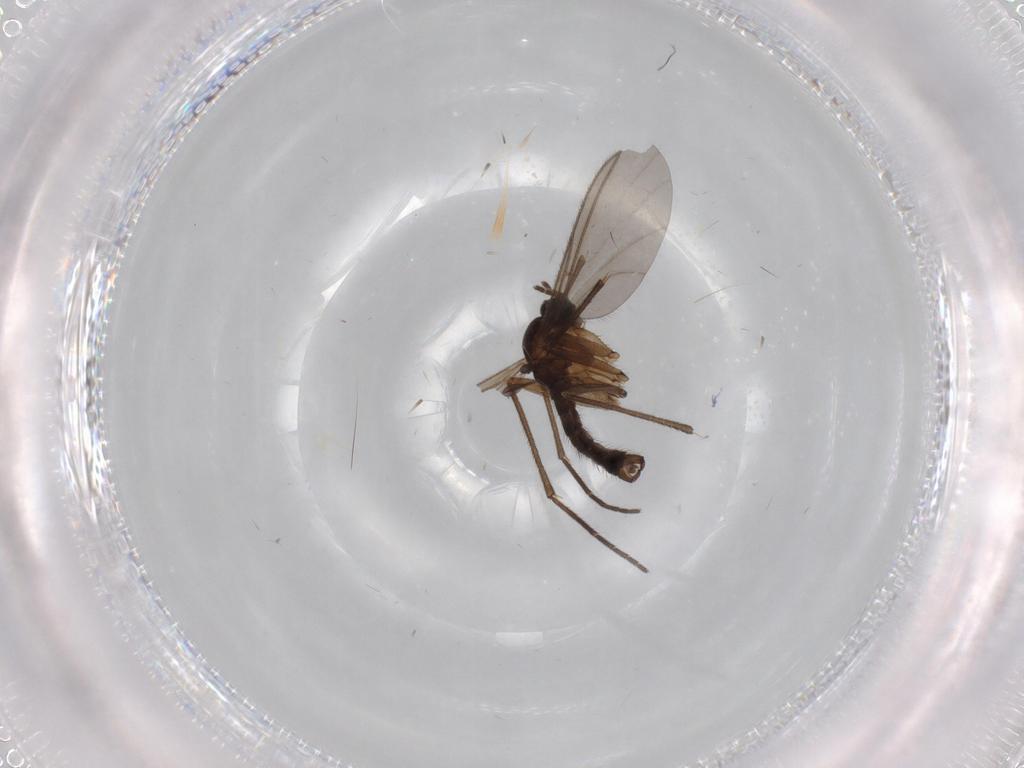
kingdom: Animalia
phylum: Arthropoda
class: Insecta
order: Diptera
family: Sciaridae
